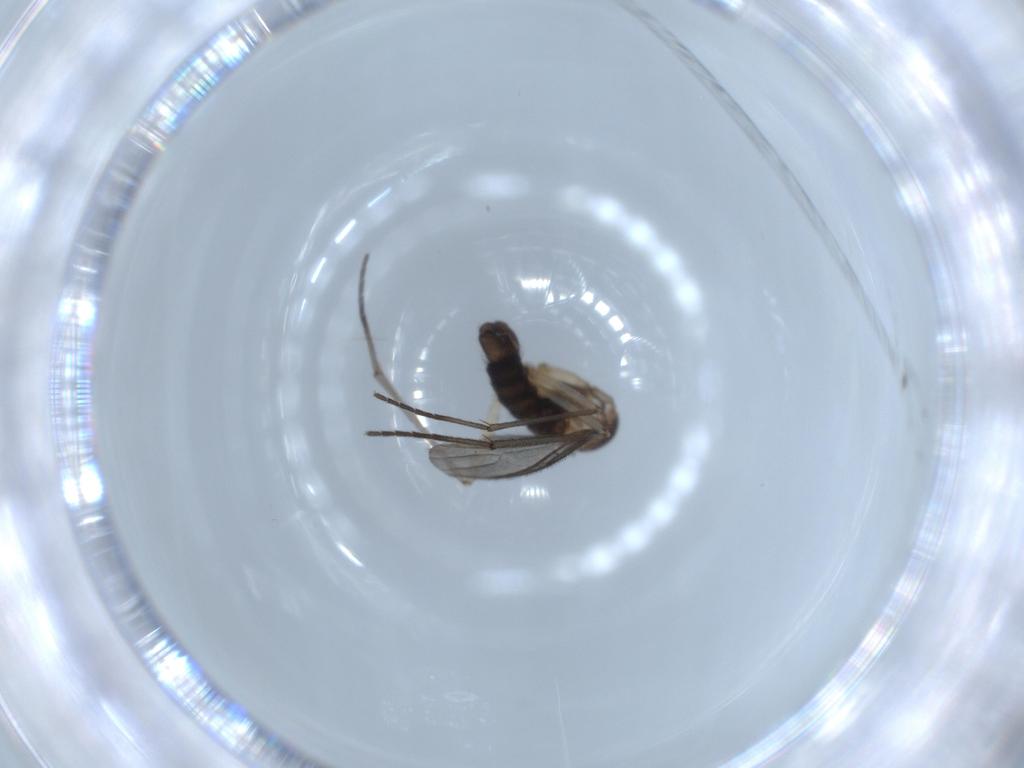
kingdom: Animalia
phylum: Arthropoda
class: Insecta
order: Diptera
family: Sciaridae
